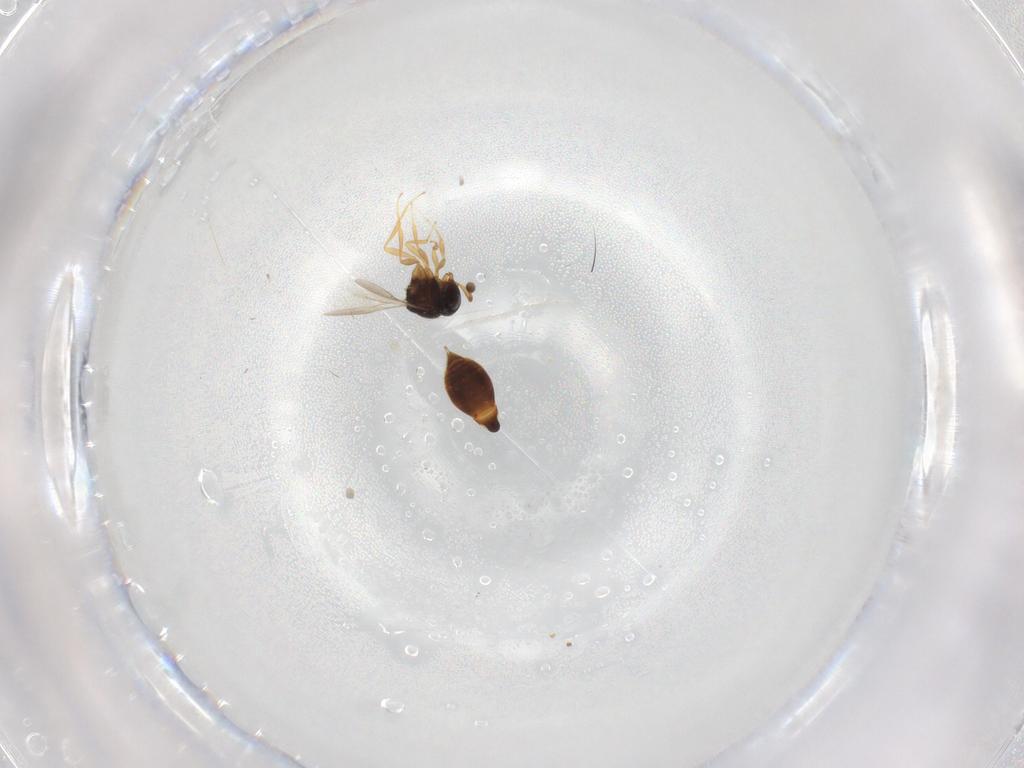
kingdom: Animalia
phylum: Arthropoda
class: Insecta
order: Hymenoptera
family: Scelionidae
